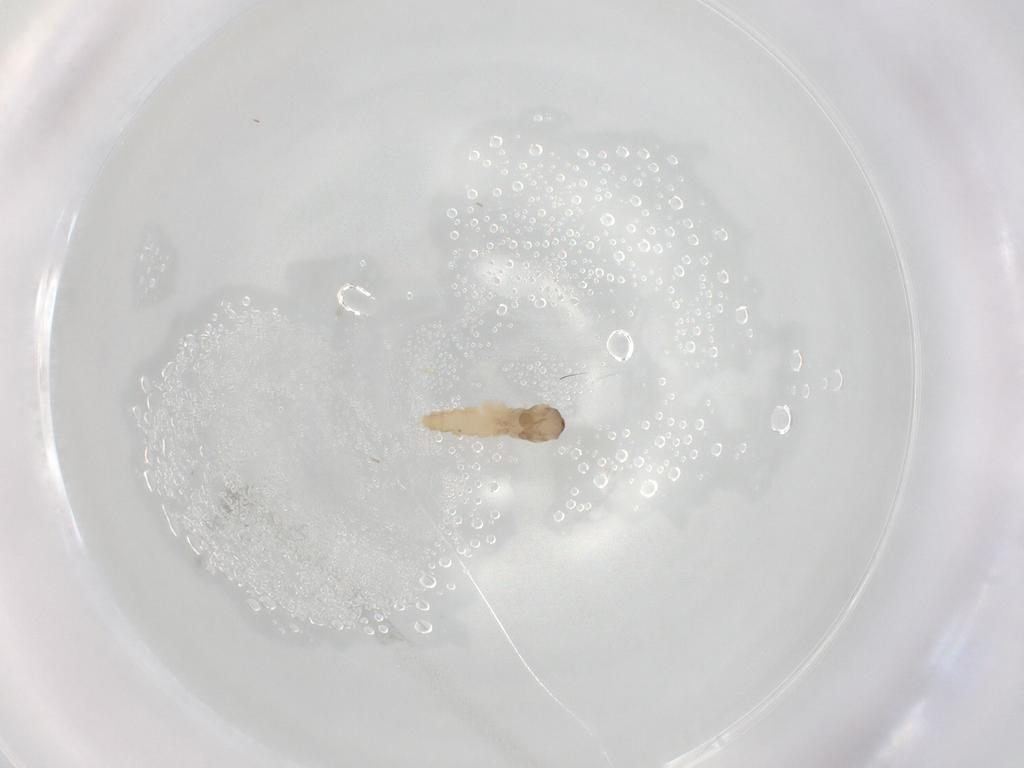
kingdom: Animalia
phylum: Arthropoda
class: Insecta
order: Diptera
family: Cecidomyiidae
